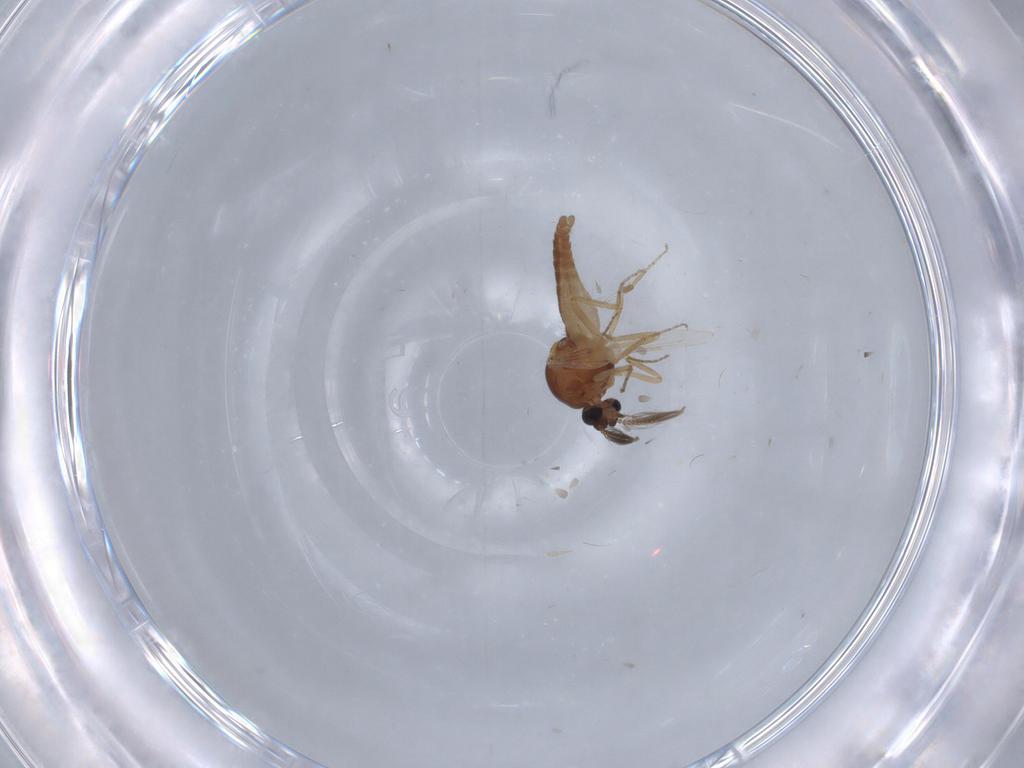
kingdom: Animalia
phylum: Arthropoda
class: Insecta
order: Diptera
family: Ceratopogonidae
